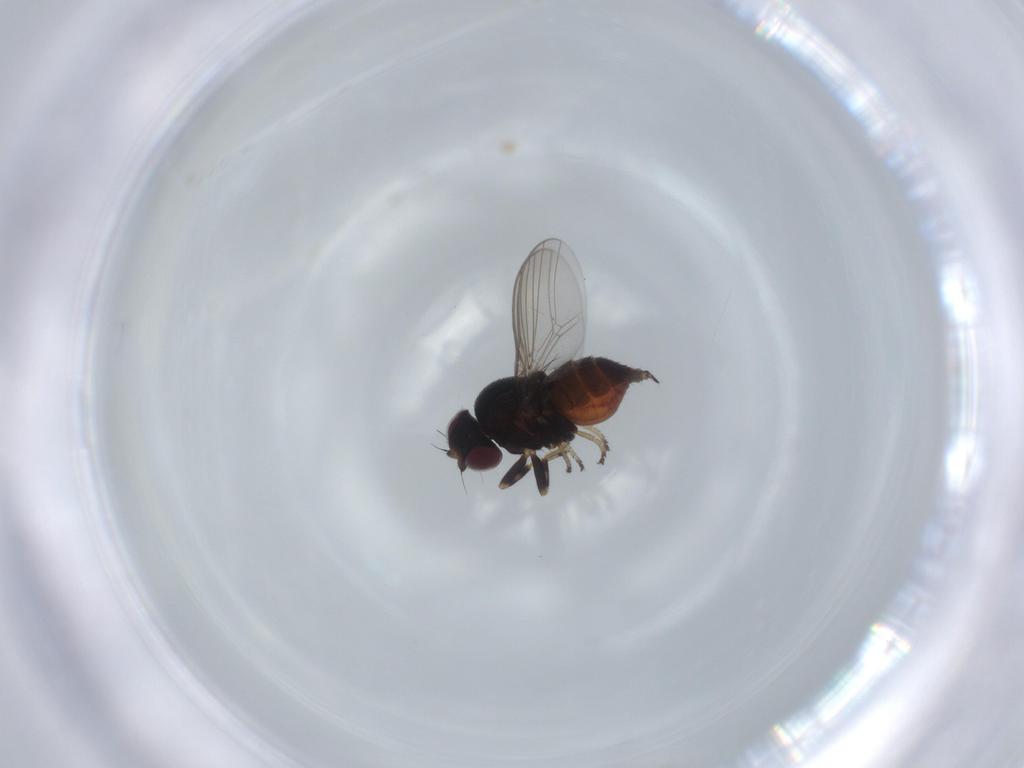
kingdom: Animalia
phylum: Arthropoda
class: Insecta
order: Diptera
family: Chloropidae
